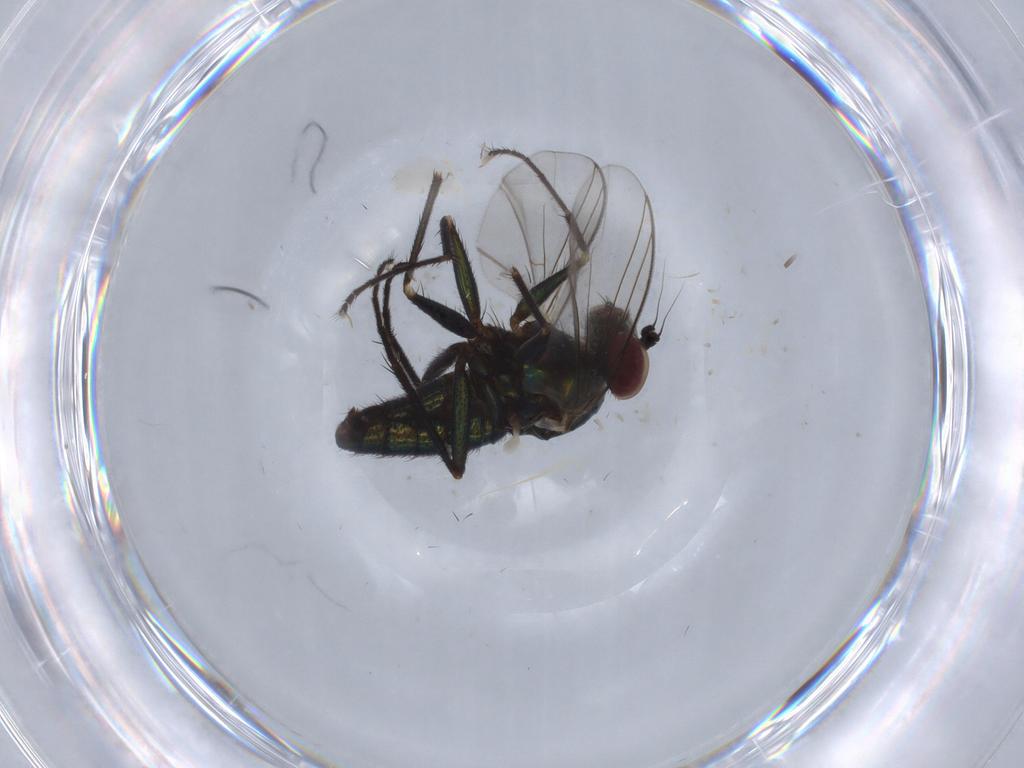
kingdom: Animalia
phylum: Arthropoda
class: Insecta
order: Diptera
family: Dolichopodidae
